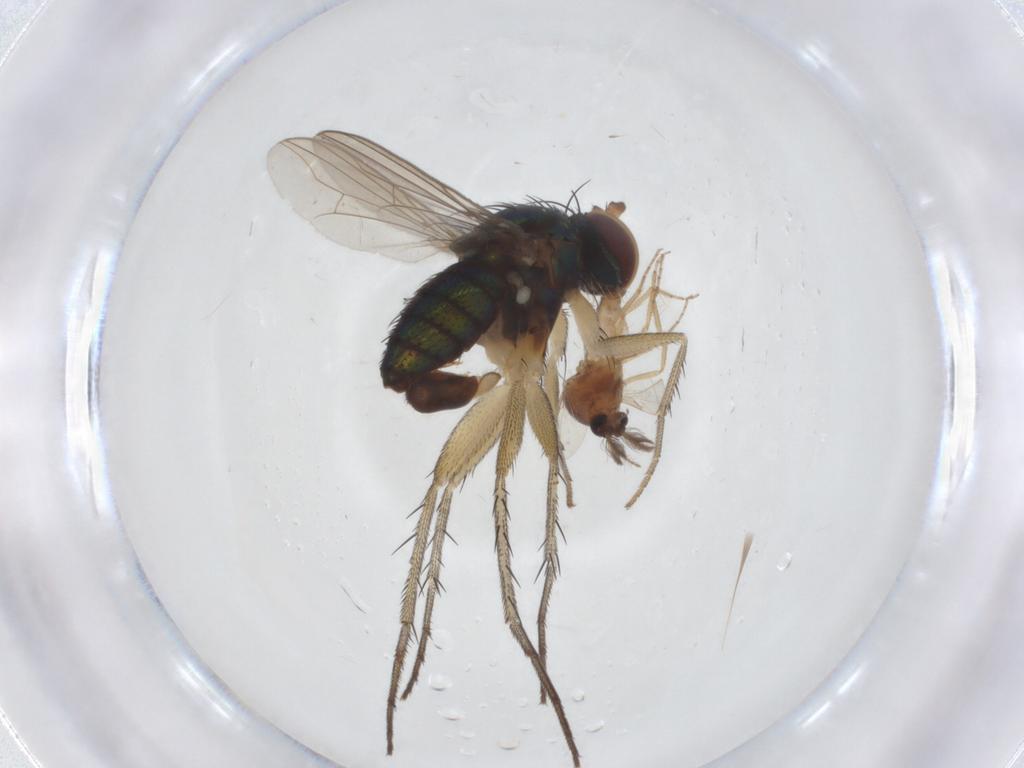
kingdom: Animalia
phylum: Arthropoda
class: Insecta
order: Diptera
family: Dolichopodidae
